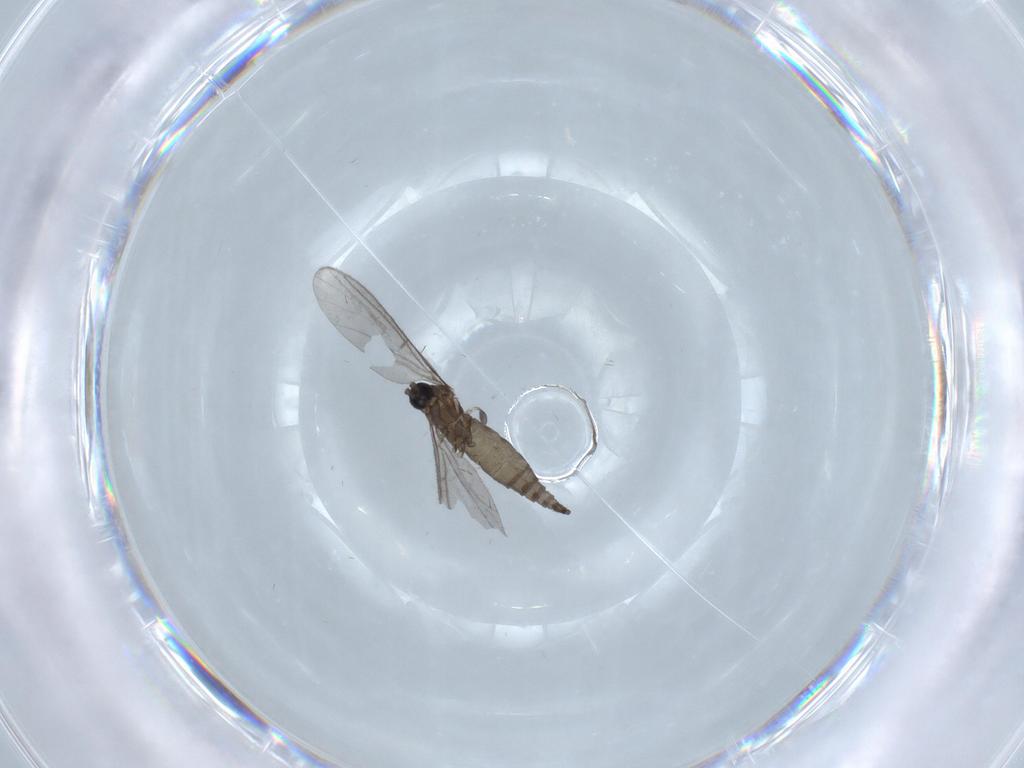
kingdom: Animalia
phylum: Arthropoda
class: Insecta
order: Diptera
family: Sciaridae
